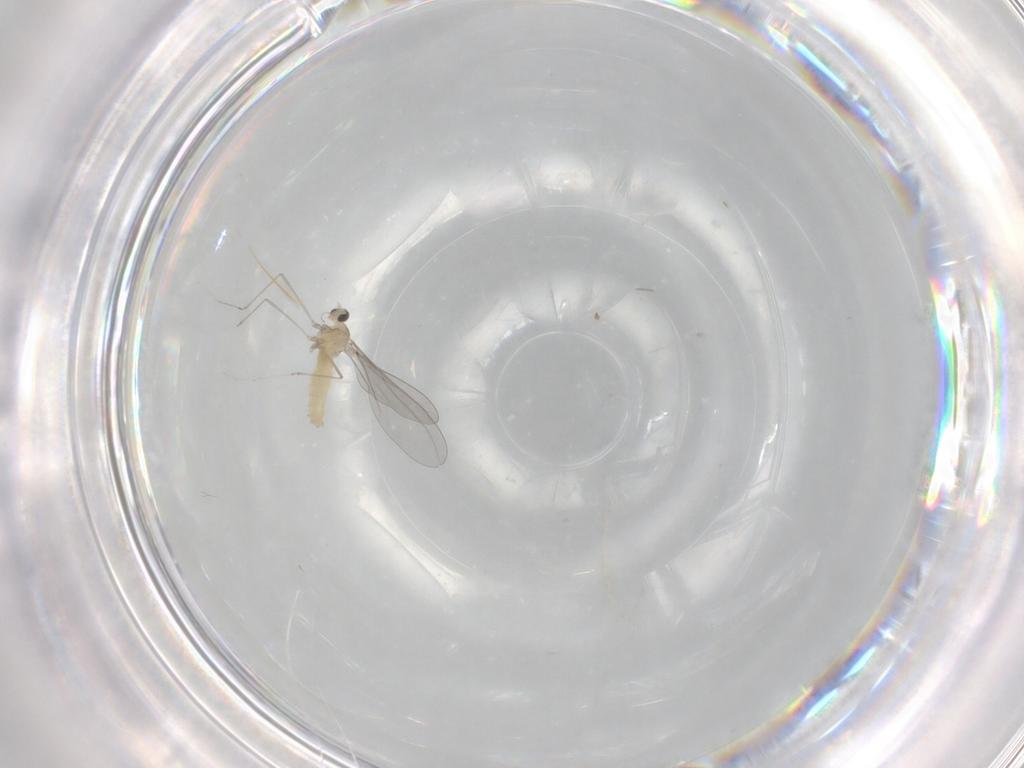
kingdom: Animalia
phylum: Arthropoda
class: Insecta
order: Diptera
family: Cecidomyiidae
